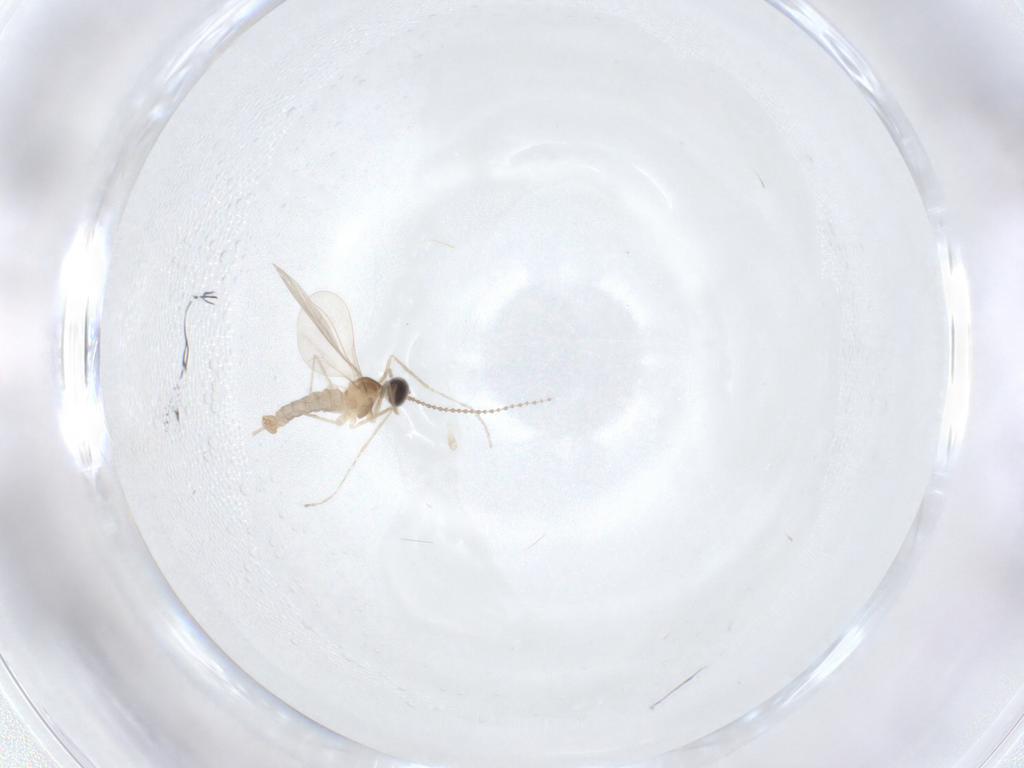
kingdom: Animalia
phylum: Arthropoda
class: Insecta
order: Diptera
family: Cecidomyiidae
